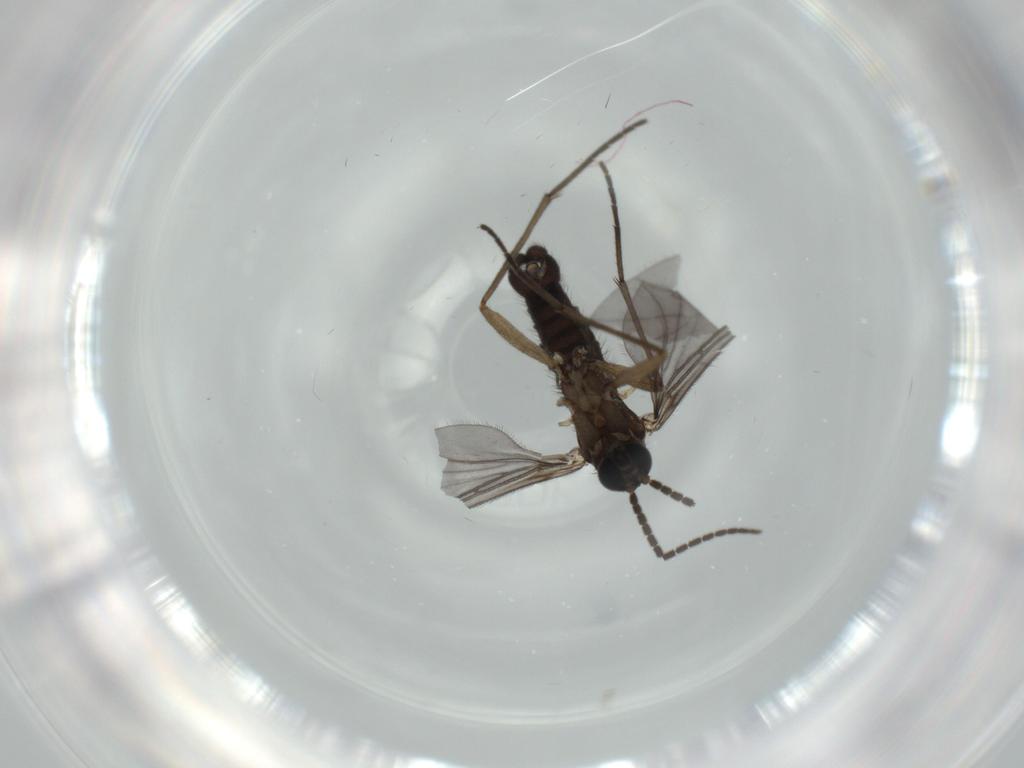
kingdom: Animalia
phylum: Arthropoda
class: Insecta
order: Diptera
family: Sciaridae
